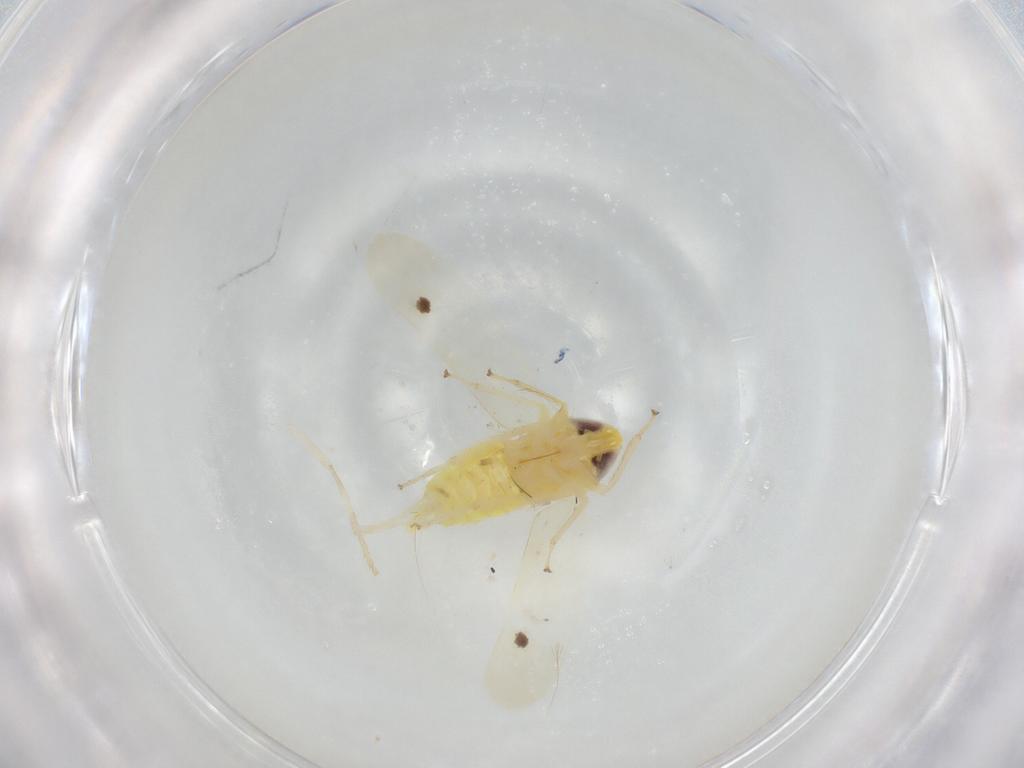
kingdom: Animalia
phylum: Arthropoda
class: Insecta
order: Hemiptera
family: Cicadellidae
